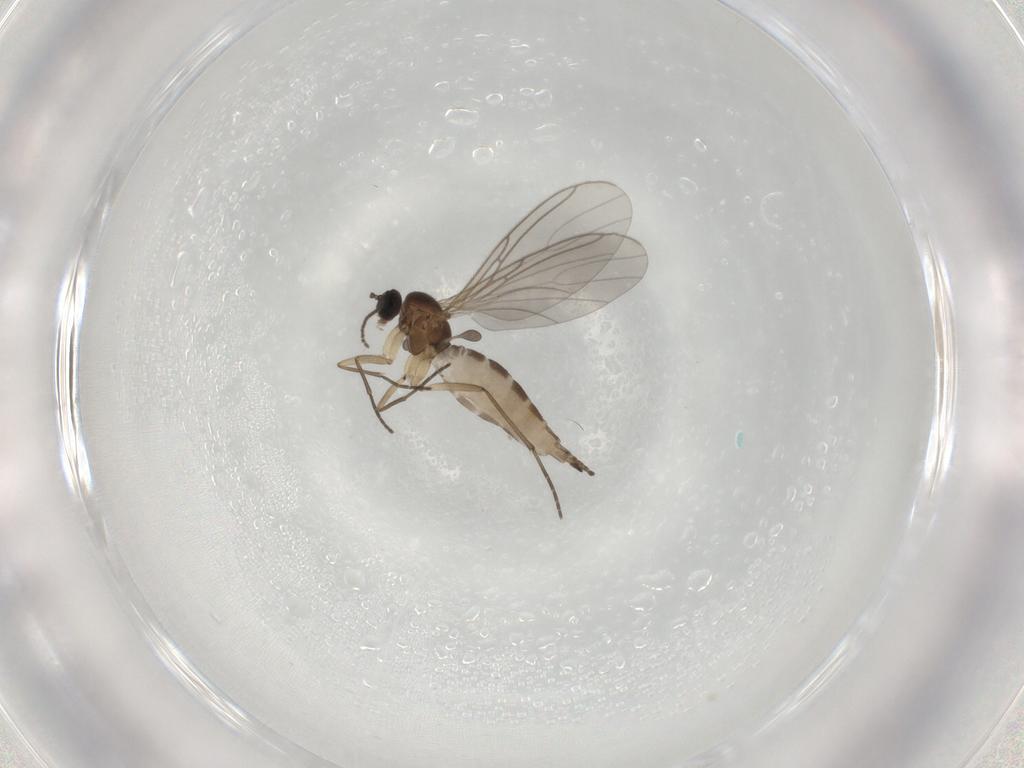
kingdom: Animalia
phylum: Arthropoda
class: Insecta
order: Diptera
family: Sciaridae
